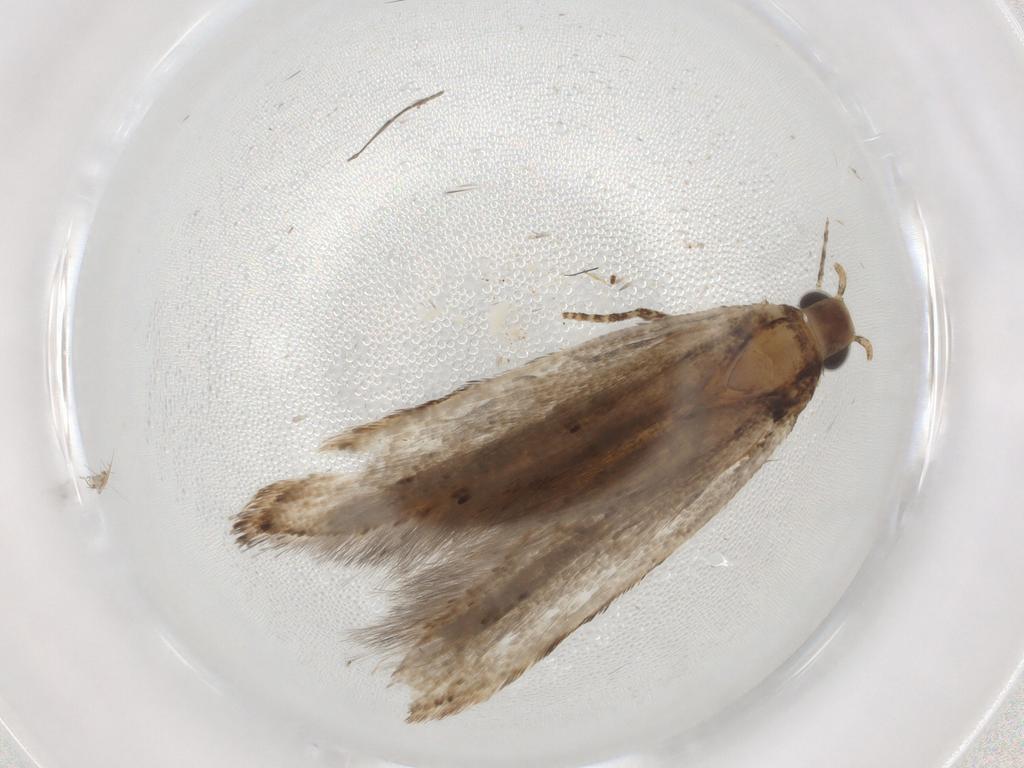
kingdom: Animalia
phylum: Arthropoda
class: Insecta
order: Lepidoptera
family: Notodontidae
